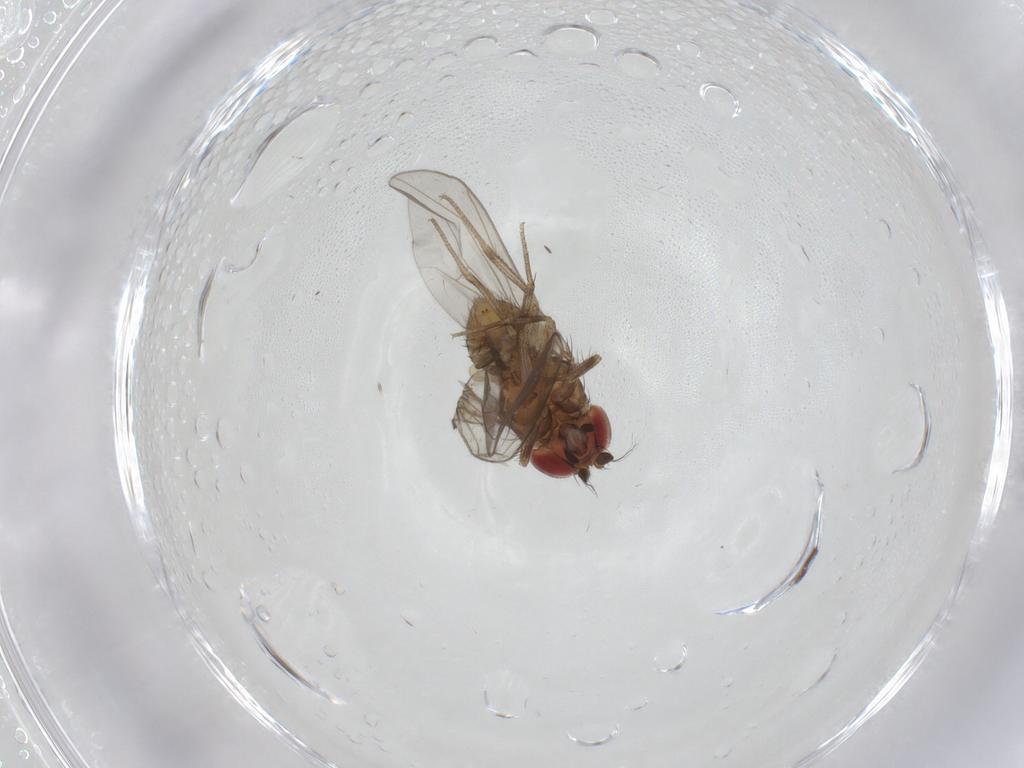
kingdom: Animalia
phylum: Arthropoda
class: Insecta
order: Diptera
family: Drosophilidae
